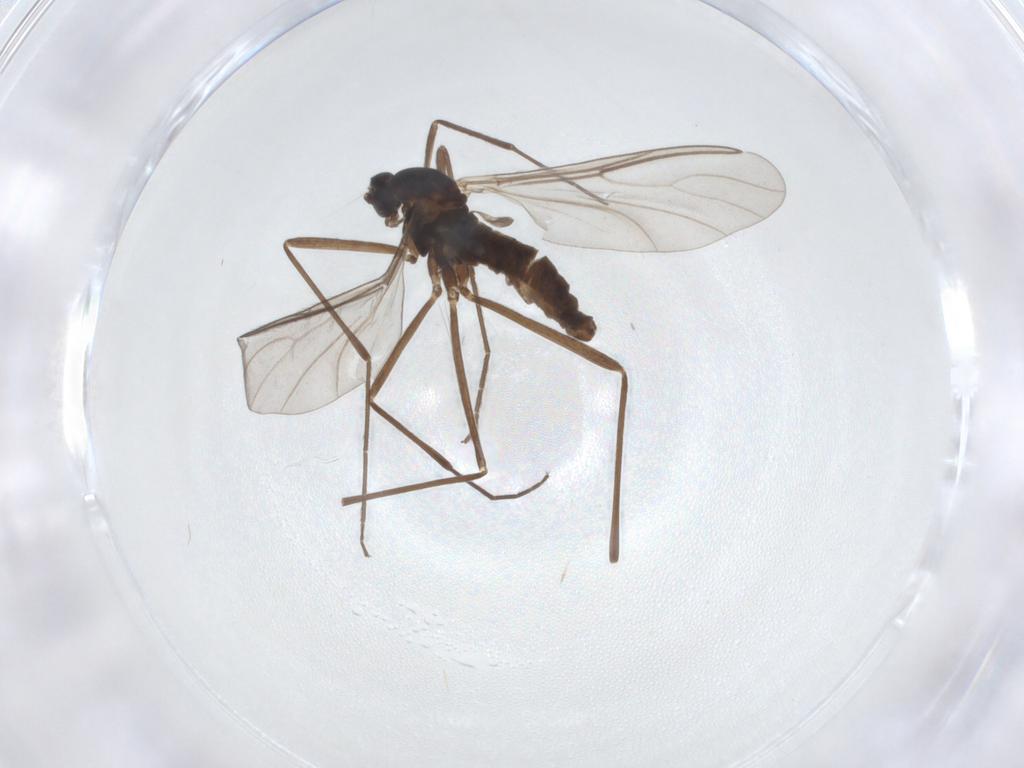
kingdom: Animalia
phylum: Arthropoda
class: Insecta
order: Diptera
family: Cecidomyiidae
